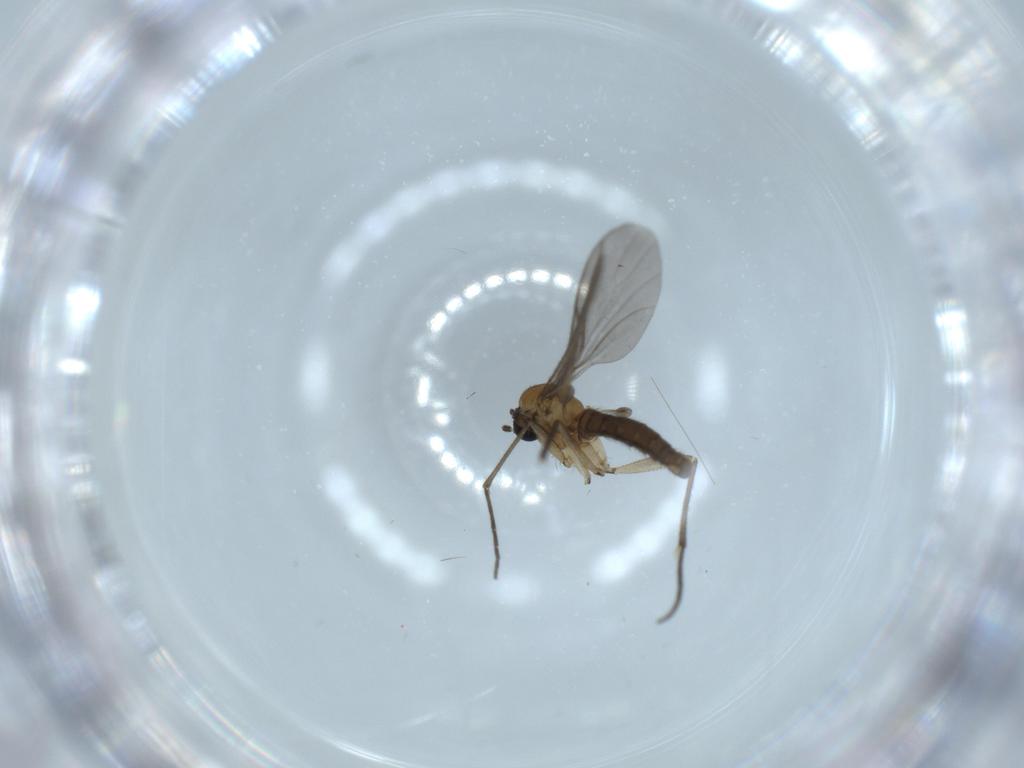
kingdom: Animalia
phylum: Arthropoda
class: Insecta
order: Diptera
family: Sciaridae
